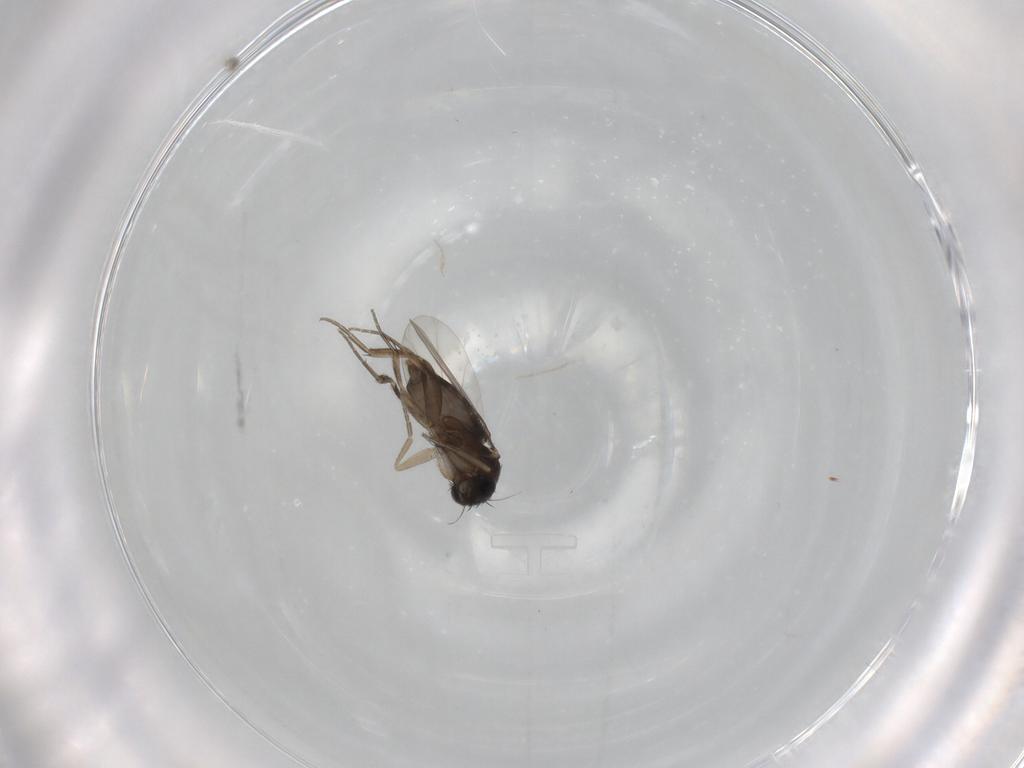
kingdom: Animalia
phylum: Arthropoda
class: Insecta
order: Diptera
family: Phoridae
